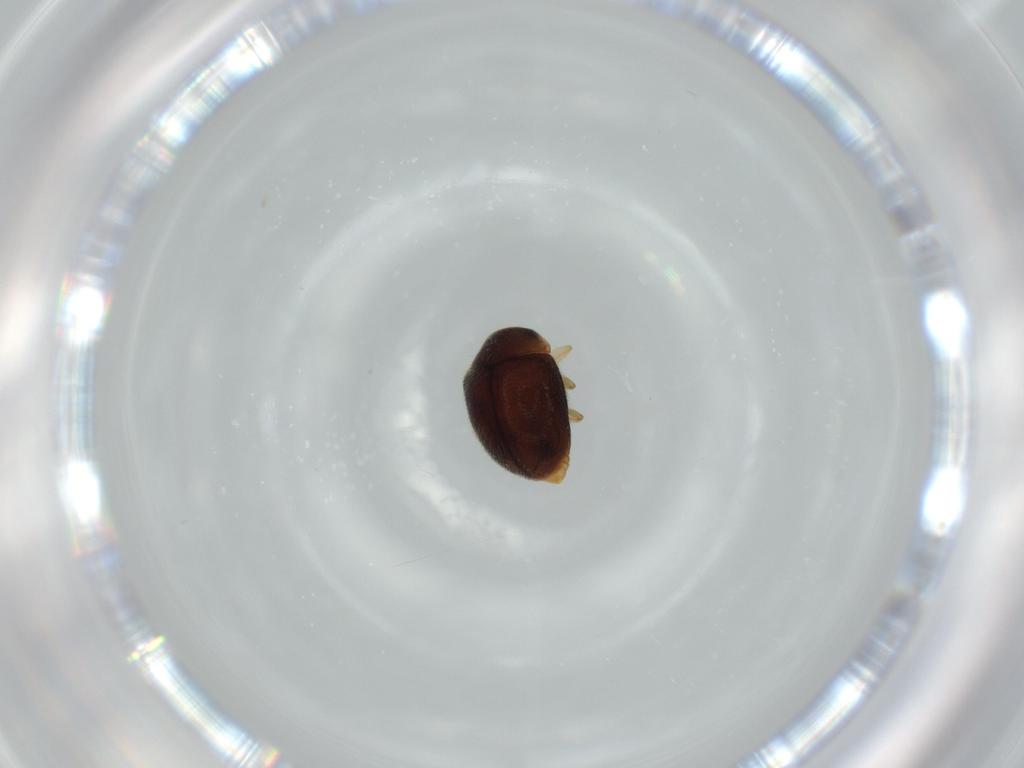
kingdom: Animalia
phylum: Arthropoda
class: Insecta
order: Coleoptera
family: Coccinellidae
